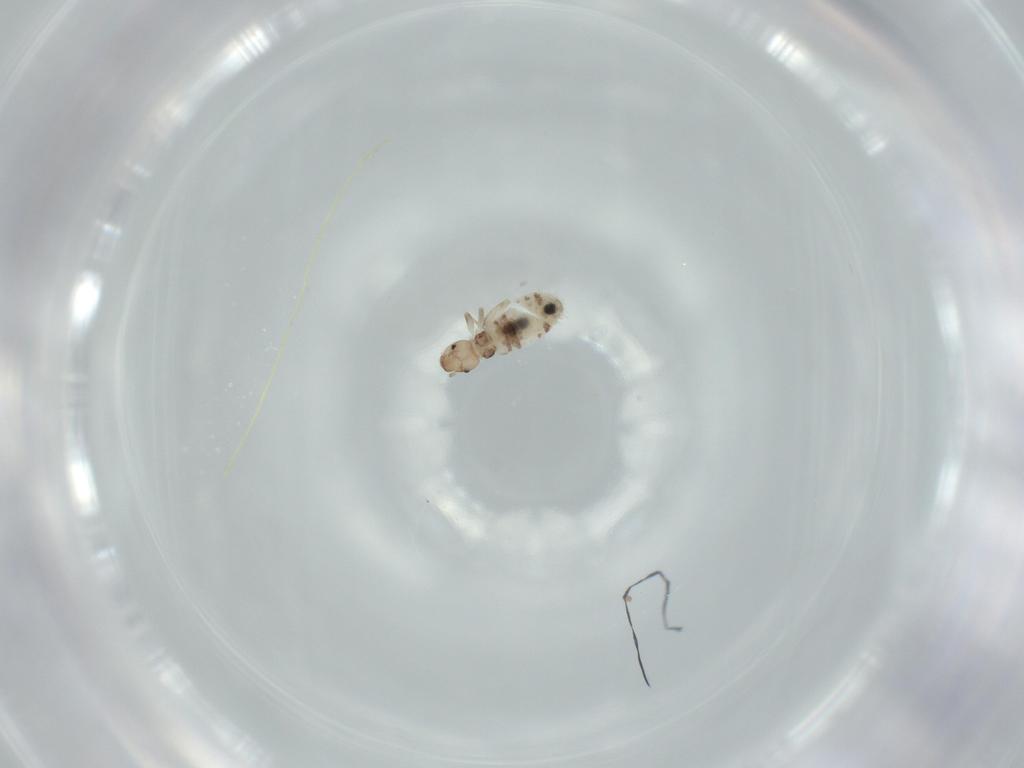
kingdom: Animalia
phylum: Arthropoda
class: Insecta
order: Psocodea
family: Liposcelididae
